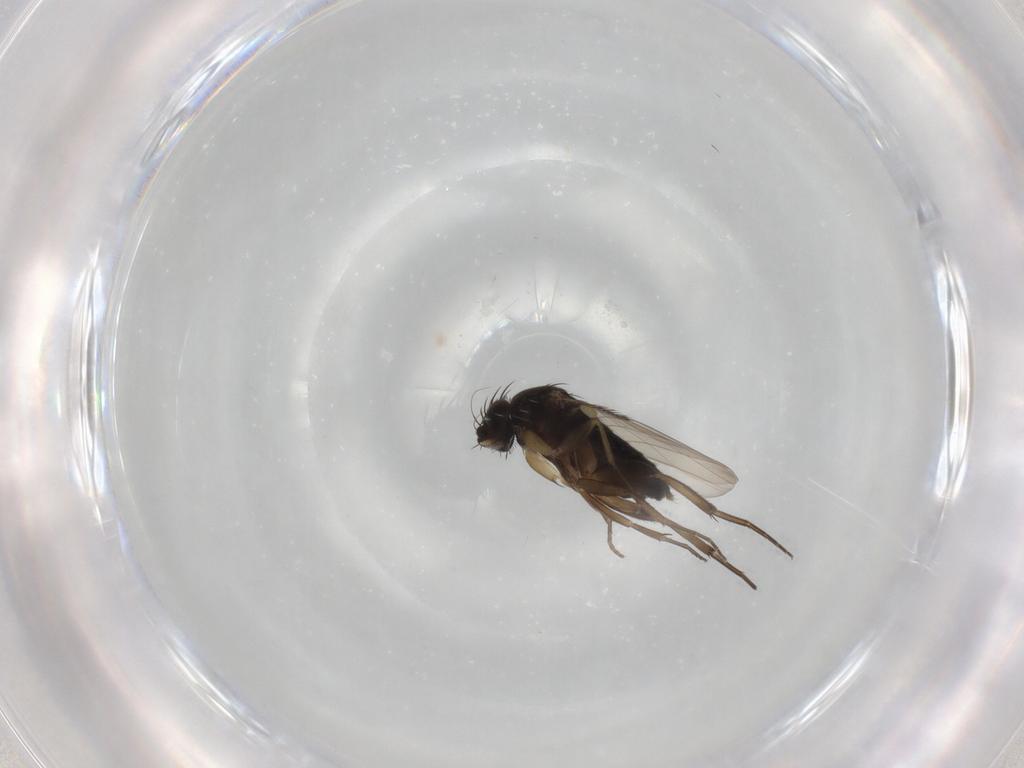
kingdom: Animalia
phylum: Arthropoda
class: Insecta
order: Diptera
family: Phoridae
